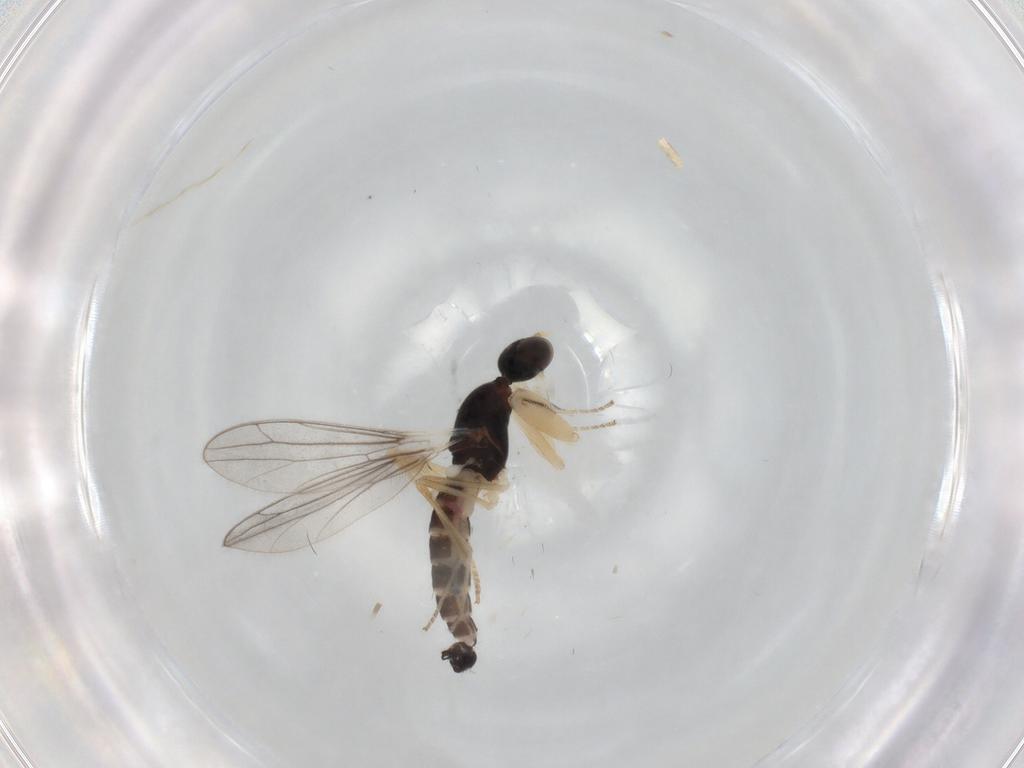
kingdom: Animalia
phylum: Arthropoda
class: Insecta
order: Diptera
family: Empididae
